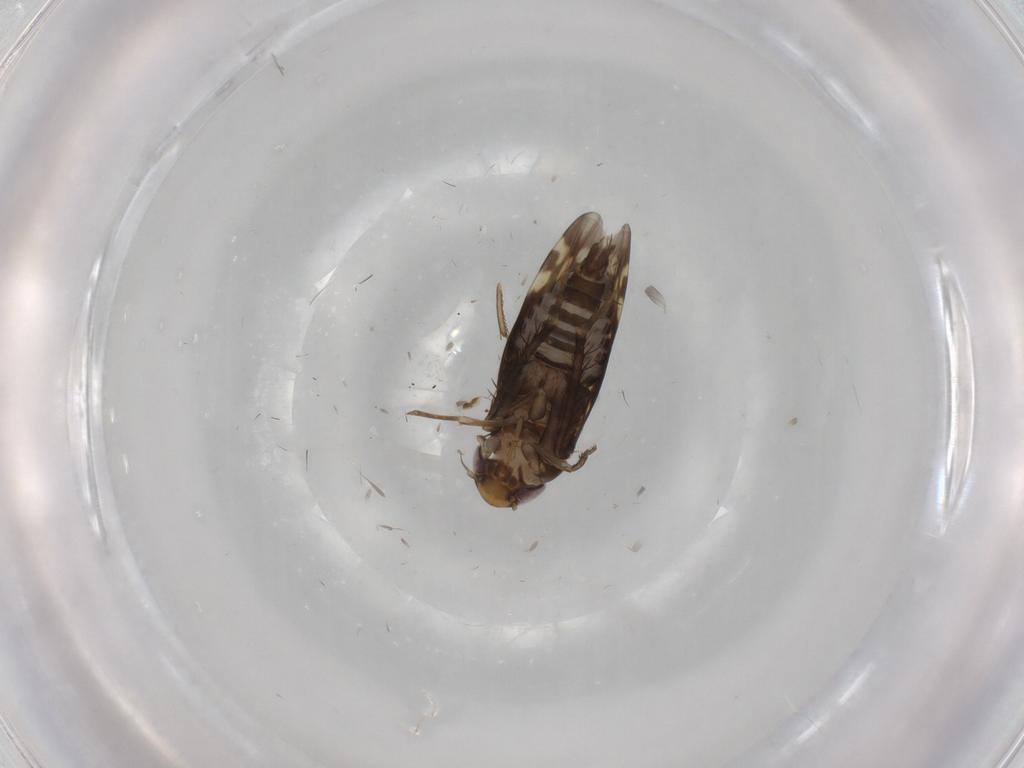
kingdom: Animalia
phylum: Arthropoda
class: Insecta
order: Hemiptera
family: Cicadellidae
